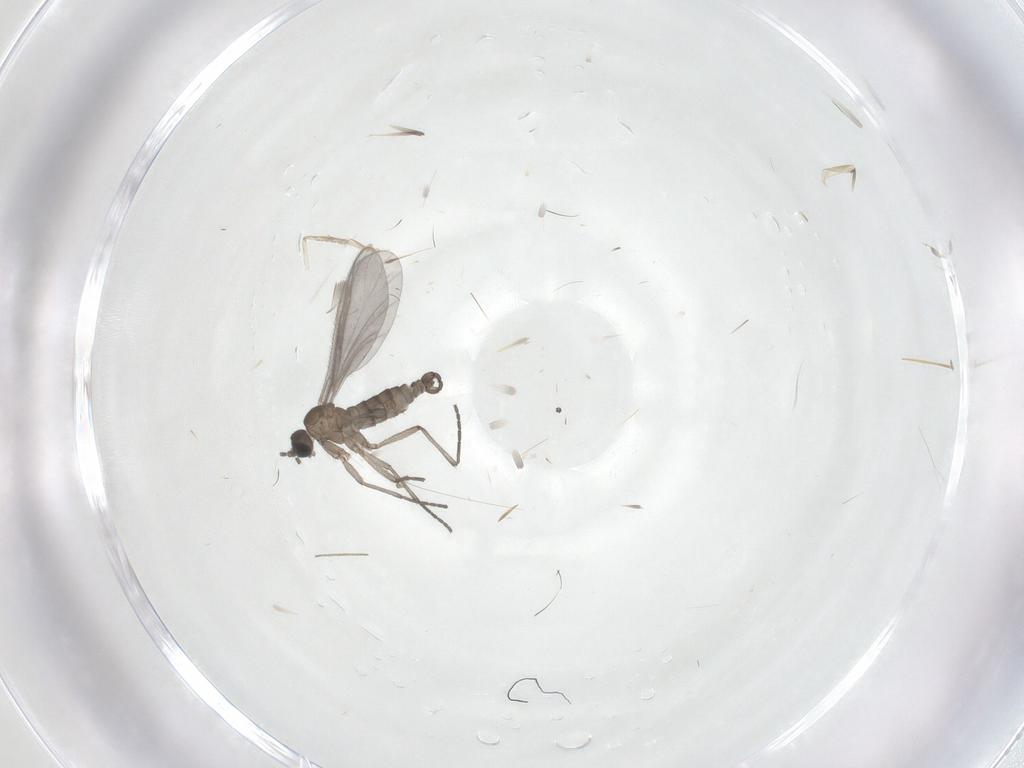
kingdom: Animalia
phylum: Arthropoda
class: Insecta
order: Diptera
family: Sciaridae
